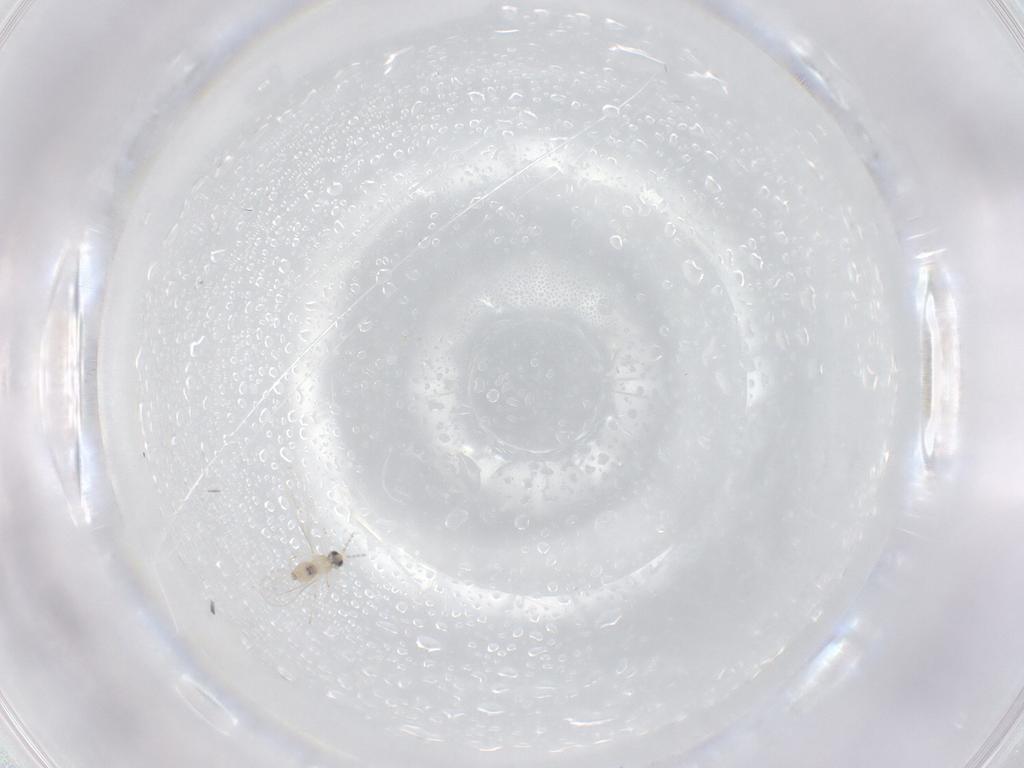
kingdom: Animalia
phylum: Arthropoda
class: Insecta
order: Diptera
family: Cecidomyiidae
